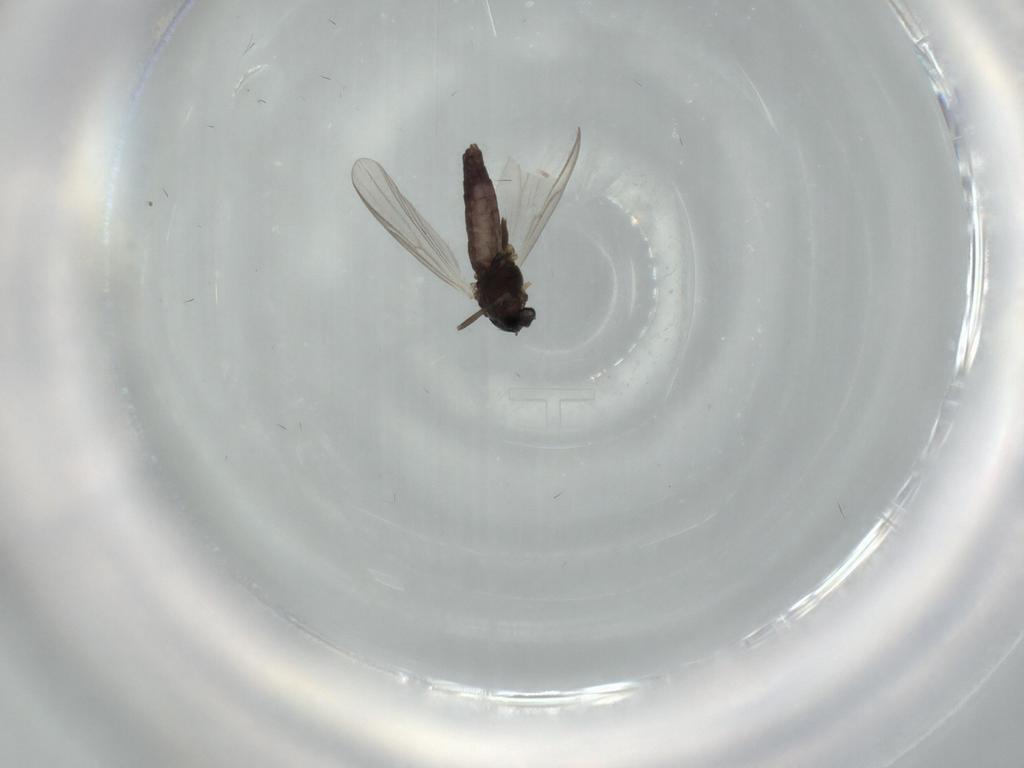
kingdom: Animalia
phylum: Arthropoda
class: Insecta
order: Diptera
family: Chironomidae
